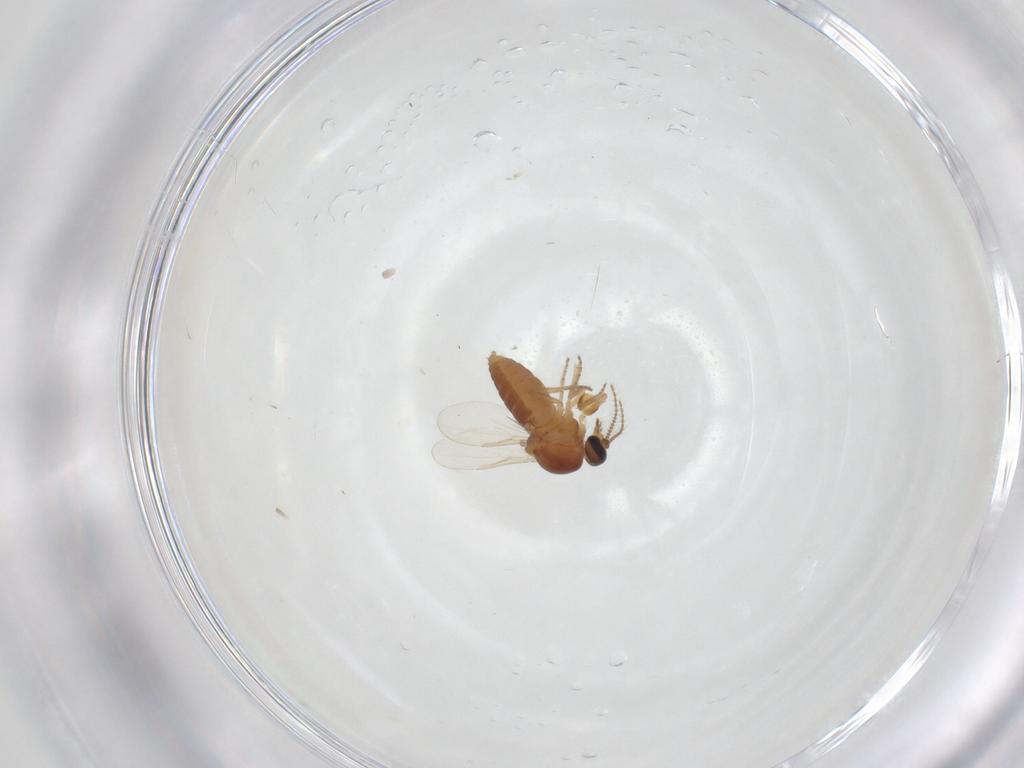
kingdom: Animalia
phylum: Arthropoda
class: Insecta
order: Diptera
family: Ceratopogonidae
